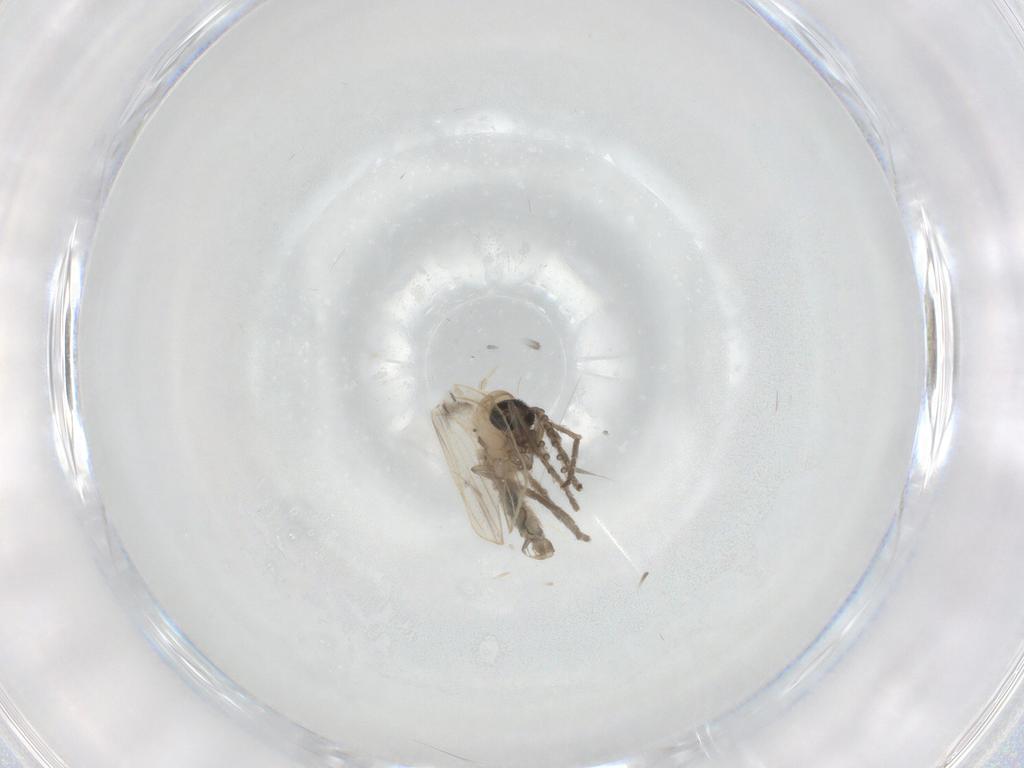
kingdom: Animalia
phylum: Arthropoda
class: Insecta
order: Diptera
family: Psychodidae
